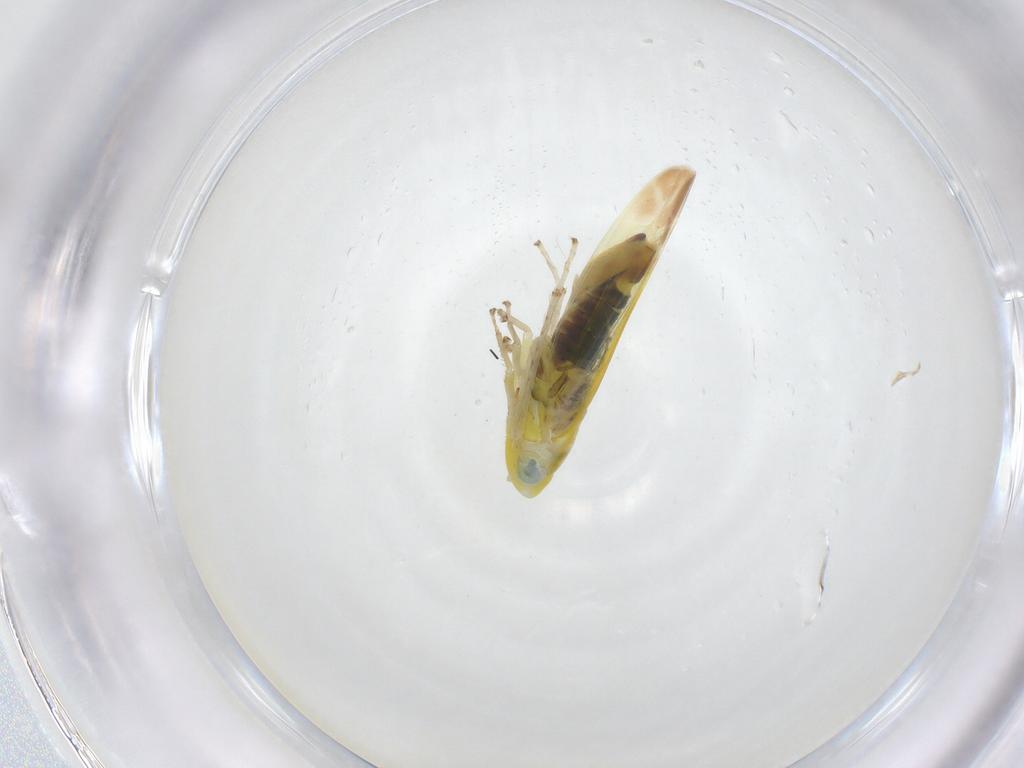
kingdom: Animalia
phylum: Arthropoda
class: Insecta
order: Hemiptera
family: Cicadellidae
